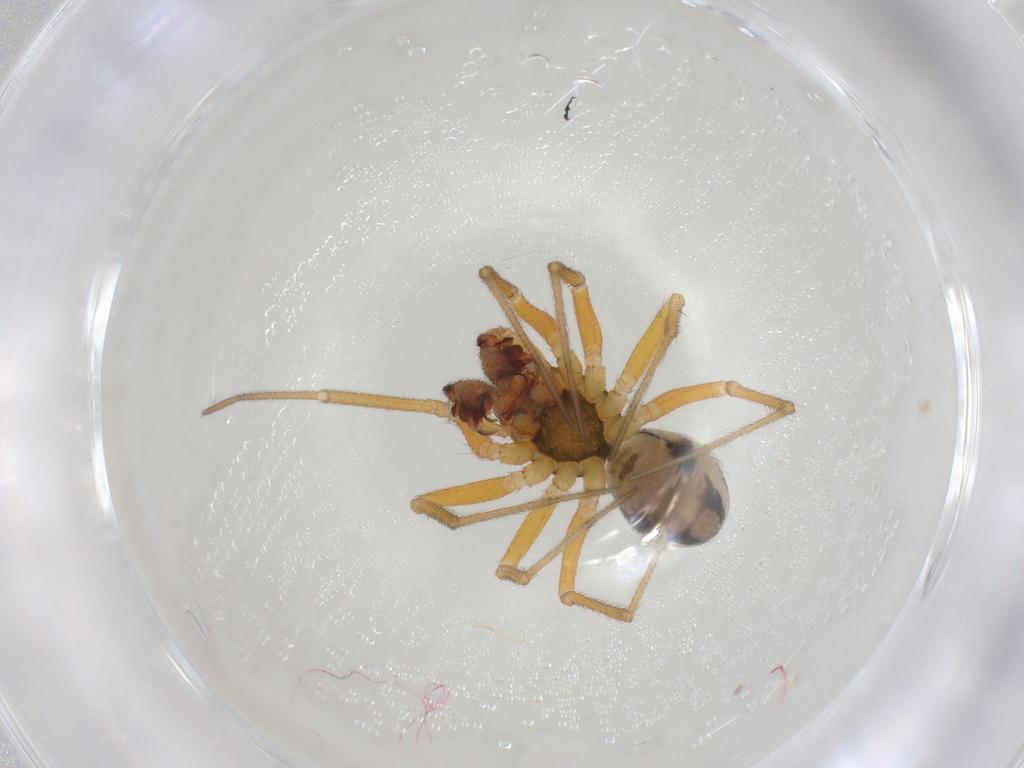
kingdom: Animalia
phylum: Arthropoda
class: Arachnida
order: Araneae
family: Linyphiidae
